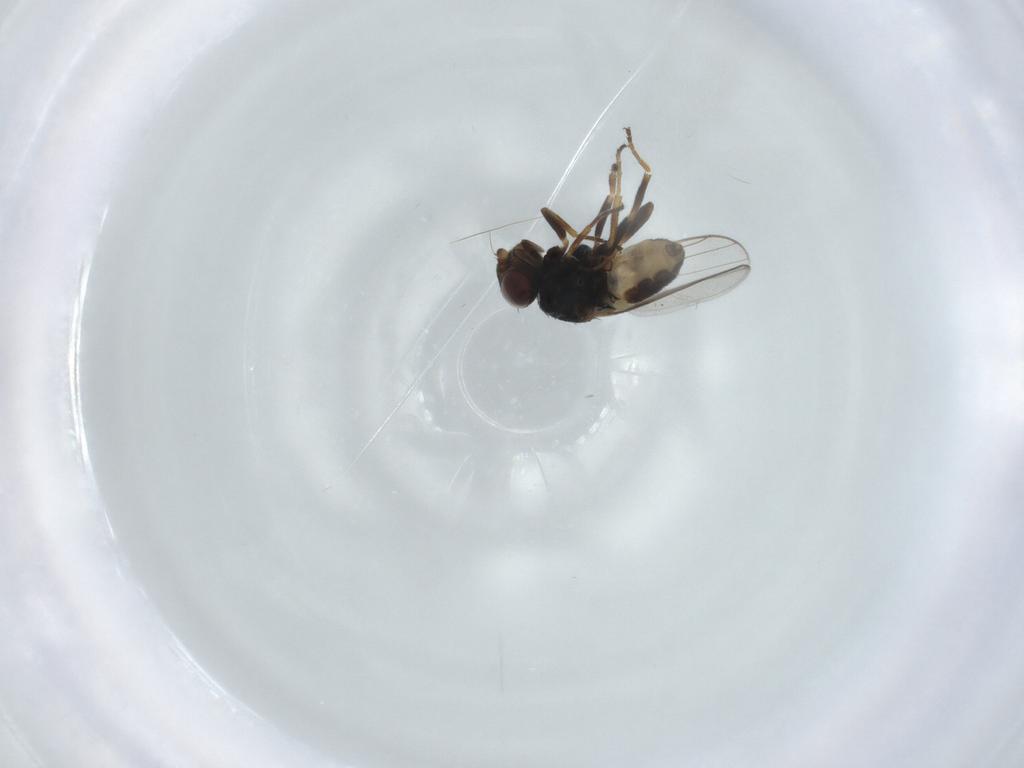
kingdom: Animalia
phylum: Arthropoda
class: Insecta
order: Diptera
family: Chloropidae
